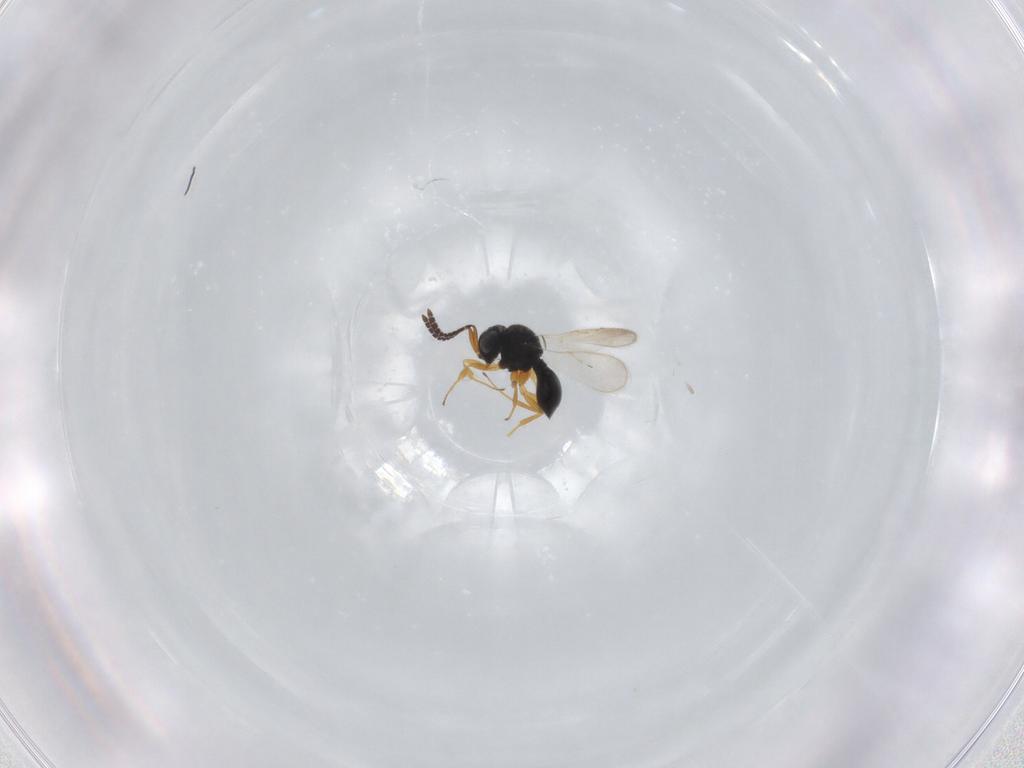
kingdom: Animalia
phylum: Arthropoda
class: Insecta
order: Hymenoptera
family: Scelionidae
